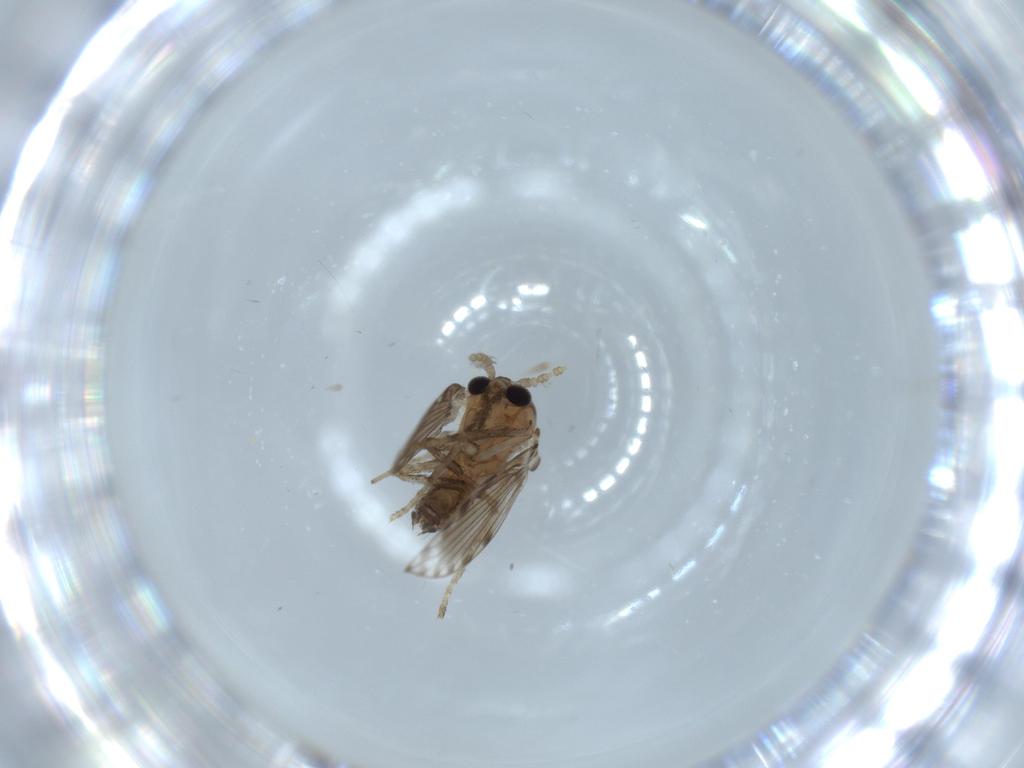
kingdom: Animalia
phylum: Arthropoda
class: Insecta
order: Diptera
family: Psychodidae
